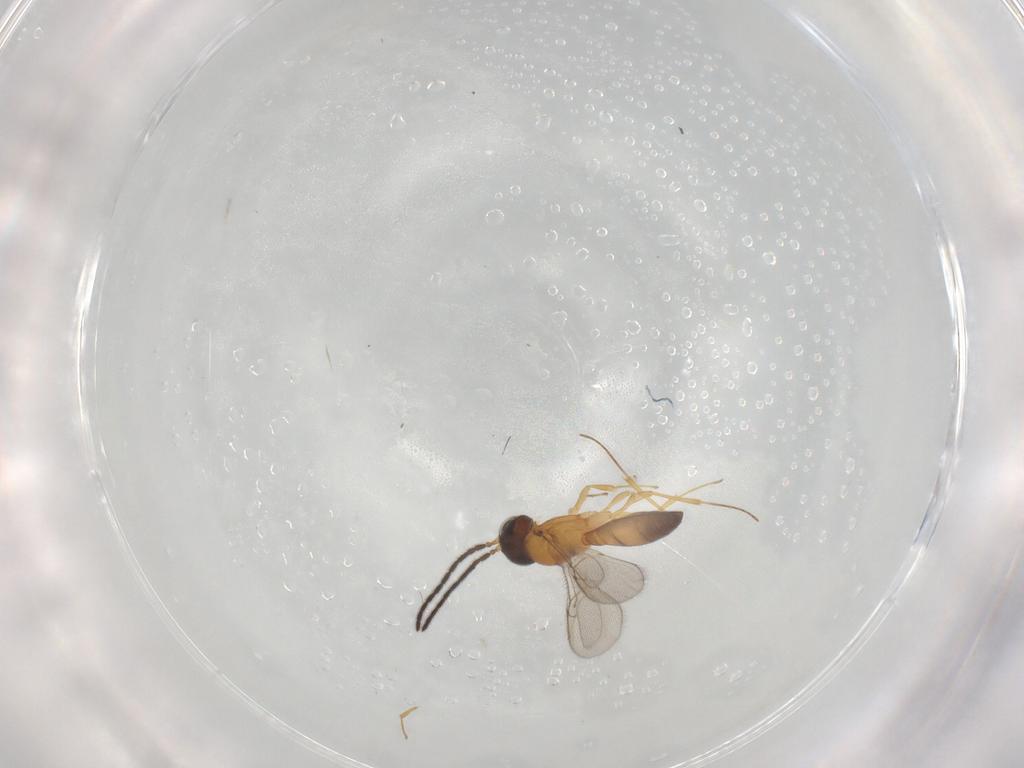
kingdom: Animalia
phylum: Arthropoda
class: Insecta
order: Hymenoptera
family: Scelionidae
